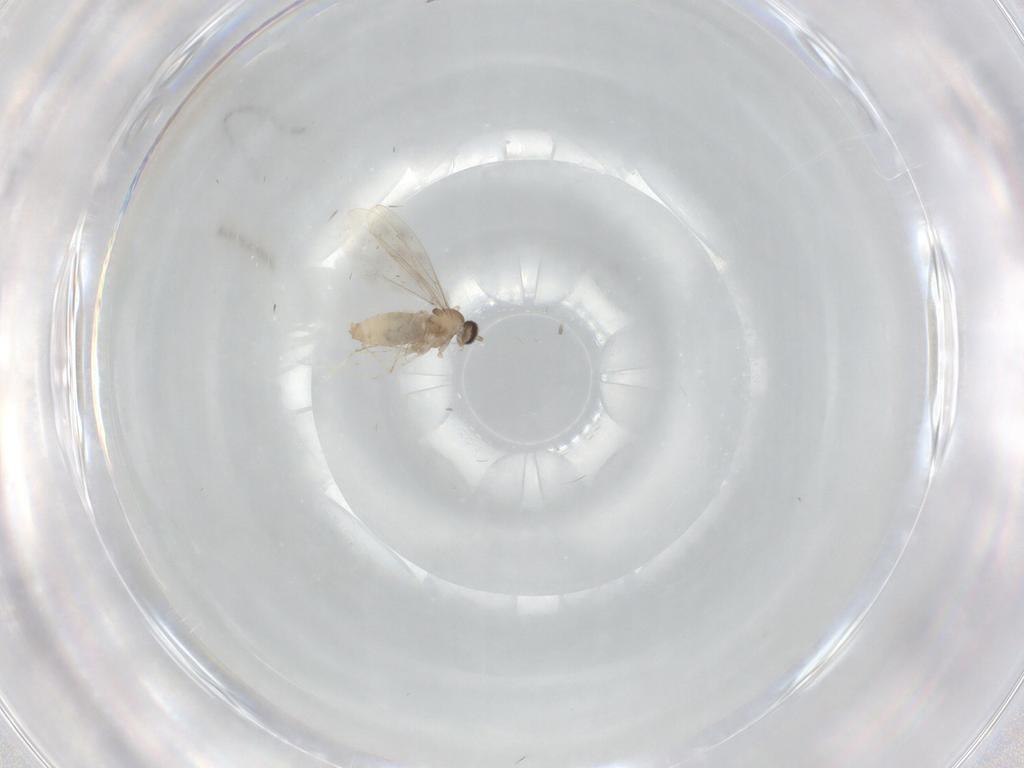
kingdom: Animalia
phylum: Arthropoda
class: Insecta
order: Diptera
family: Cecidomyiidae
